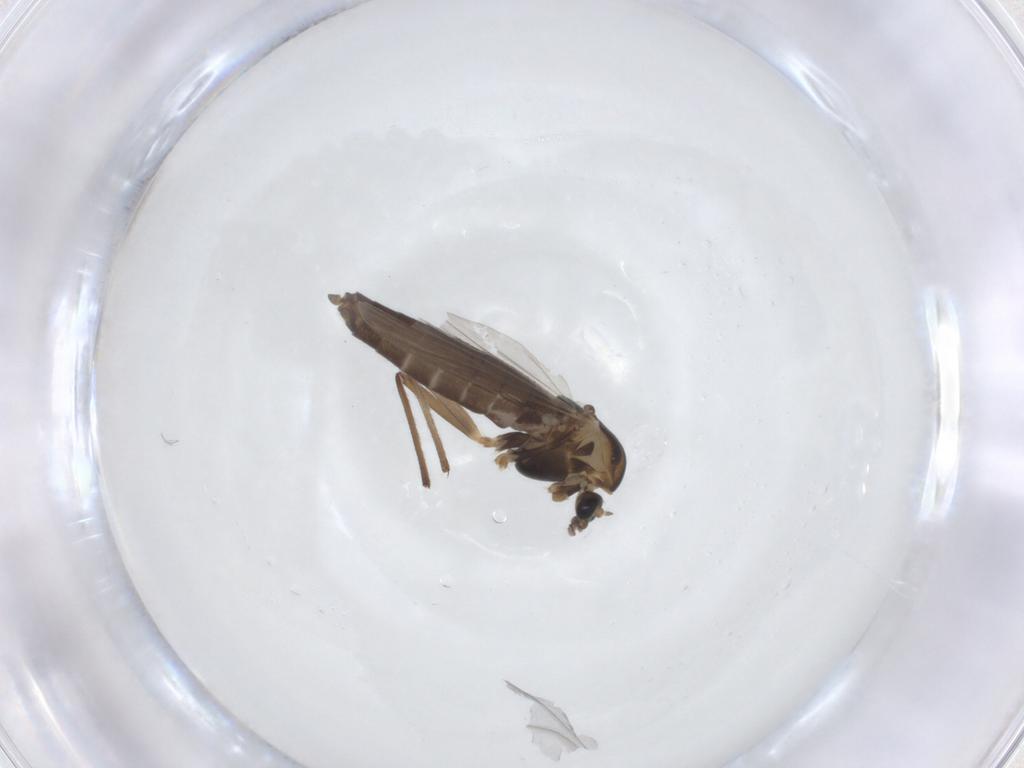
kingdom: Animalia
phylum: Arthropoda
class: Insecta
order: Diptera
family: Chironomidae
